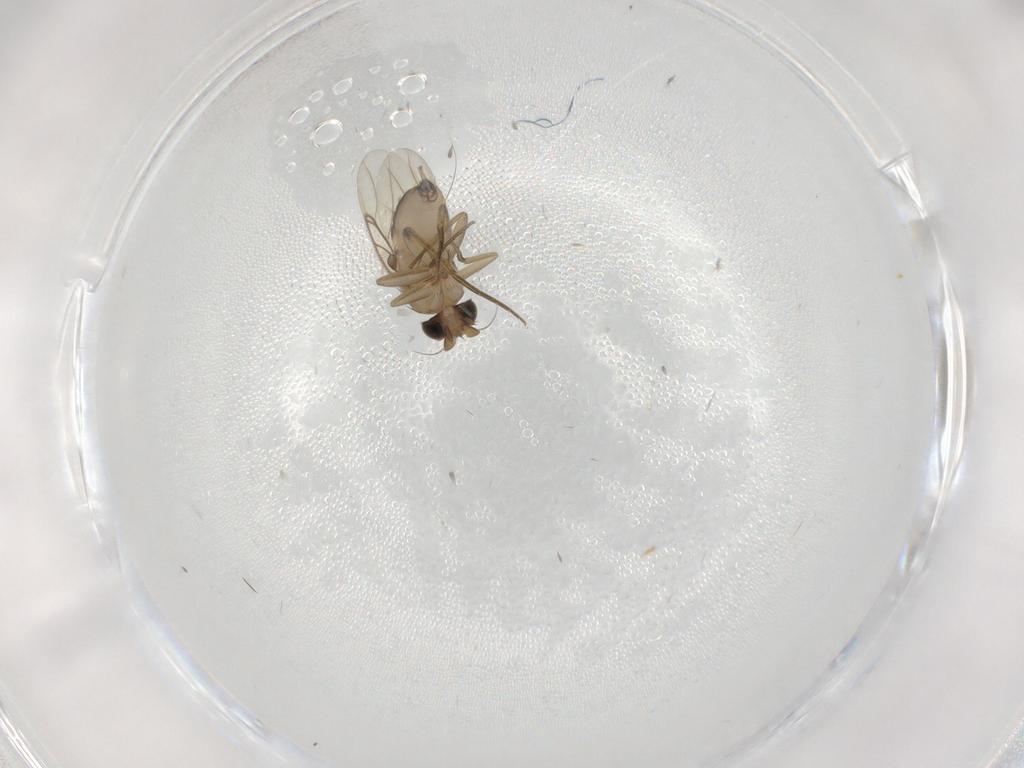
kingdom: Animalia
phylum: Arthropoda
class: Insecta
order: Diptera
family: Phoridae
